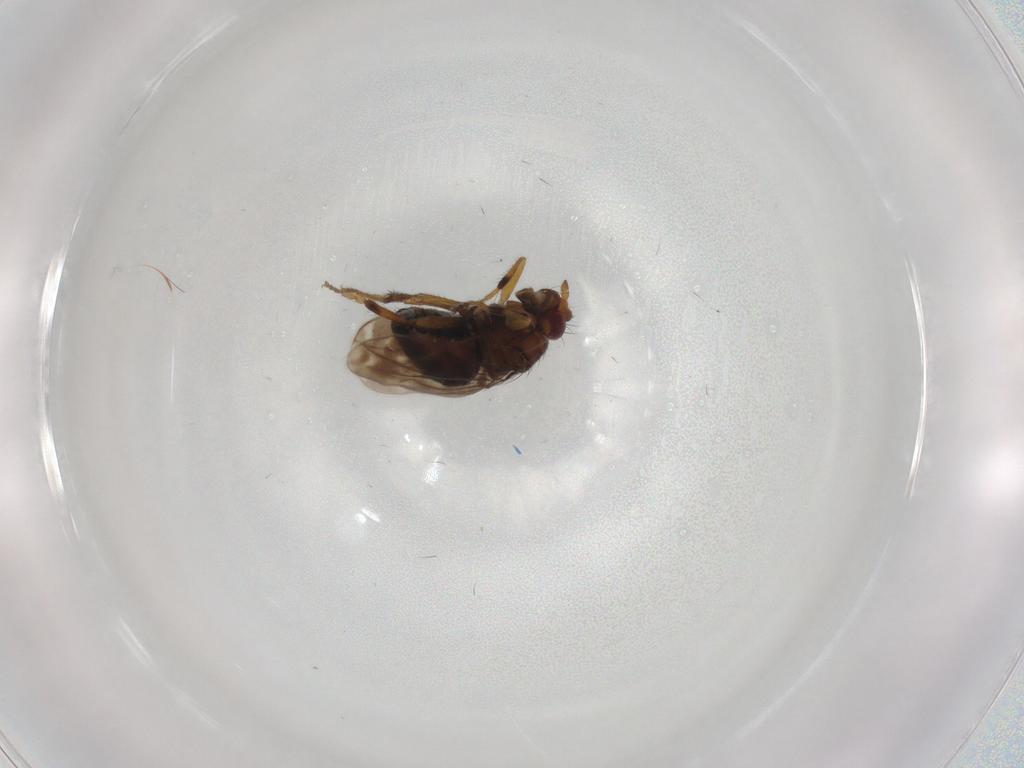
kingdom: Animalia
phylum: Arthropoda
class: Insecta
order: Diptera
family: Sphaeroceridae
